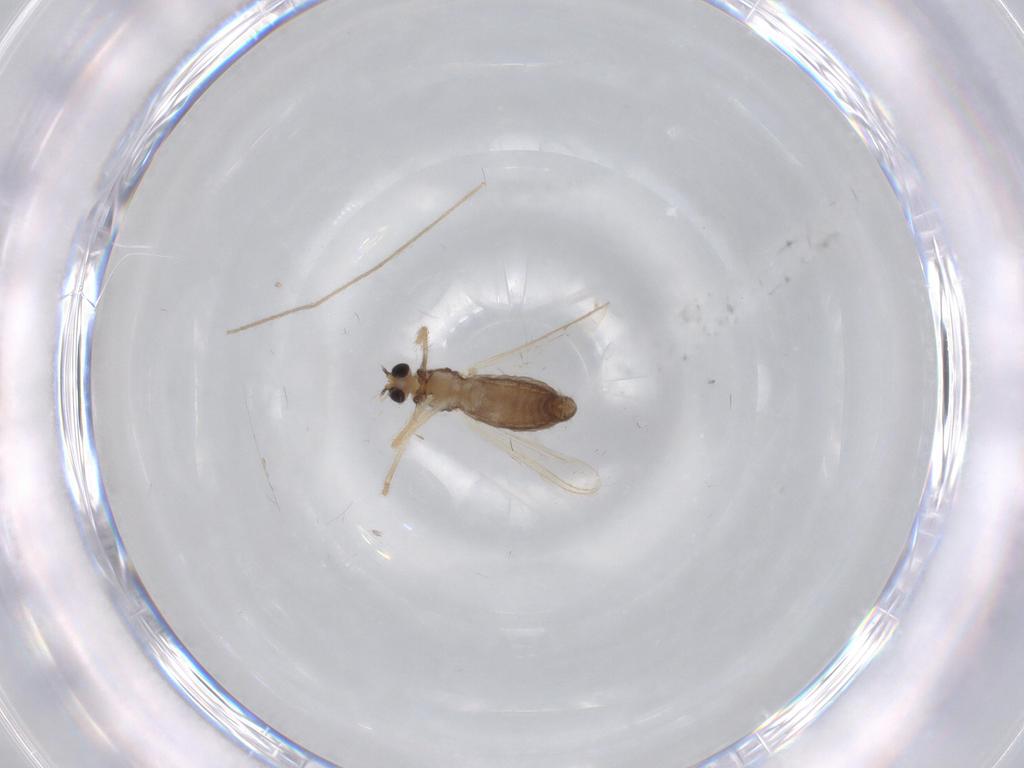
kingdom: Animalia
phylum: Arthropoda
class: Insecta
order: Diptera
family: Chironomidae
